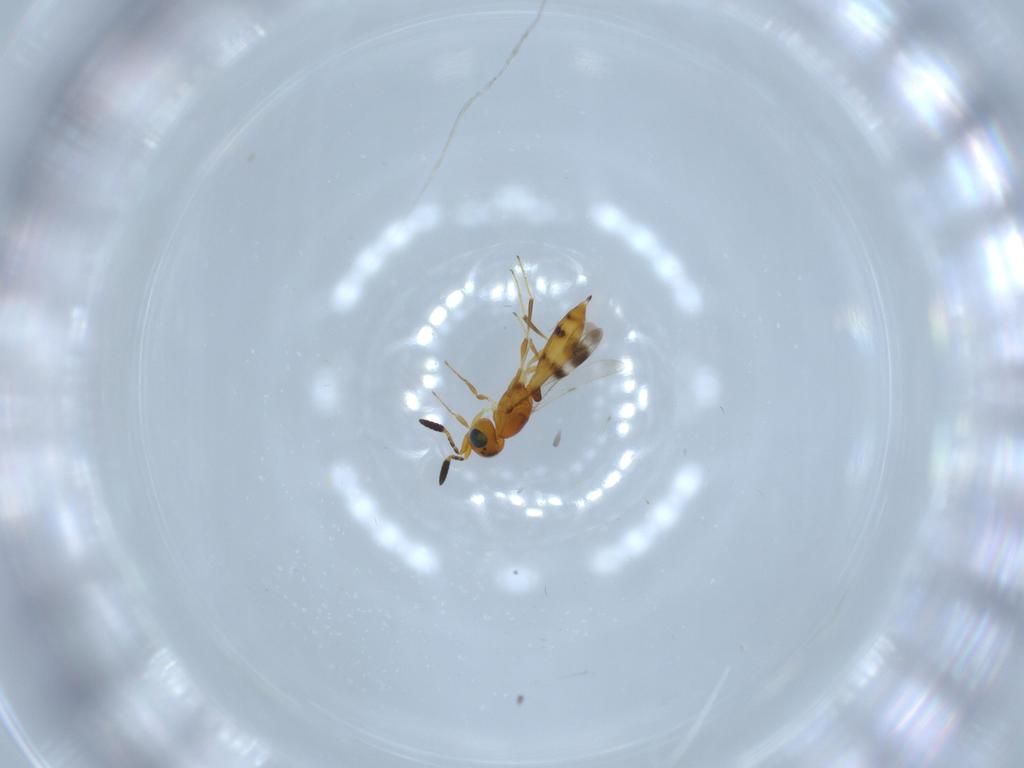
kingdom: Animalia
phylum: Arthropoda
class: Insecta
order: Hymenoptera
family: Scelionidae
